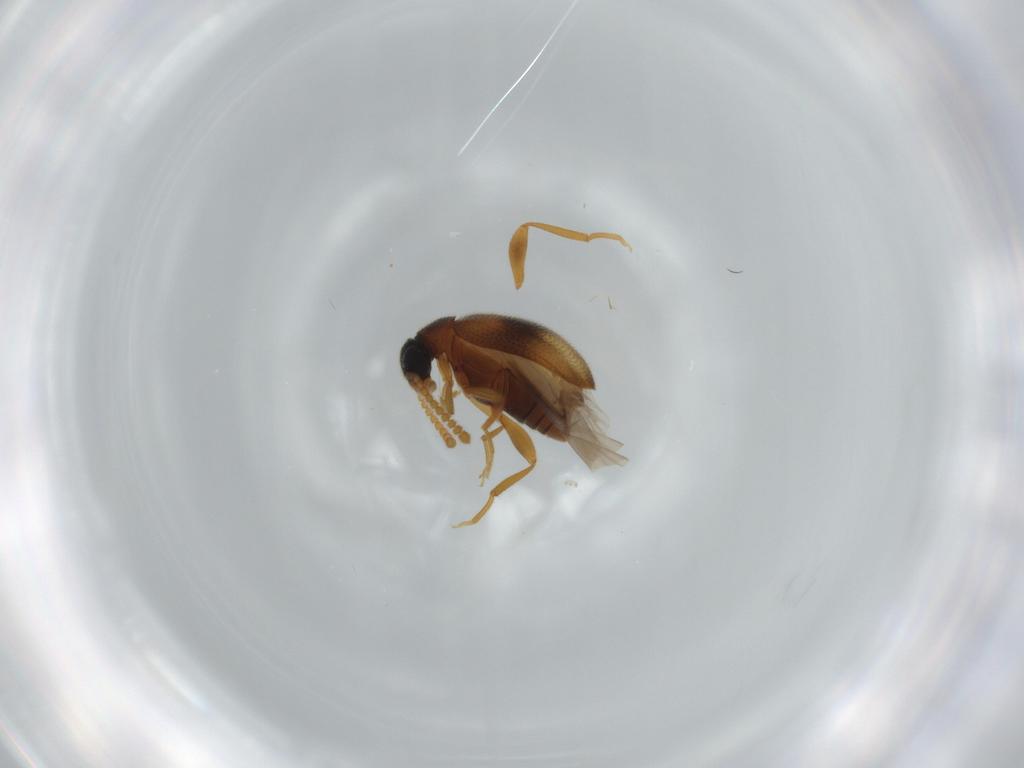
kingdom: Animalia
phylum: Arthropoda
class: Insecta
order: Coleoptera
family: Aderidae
